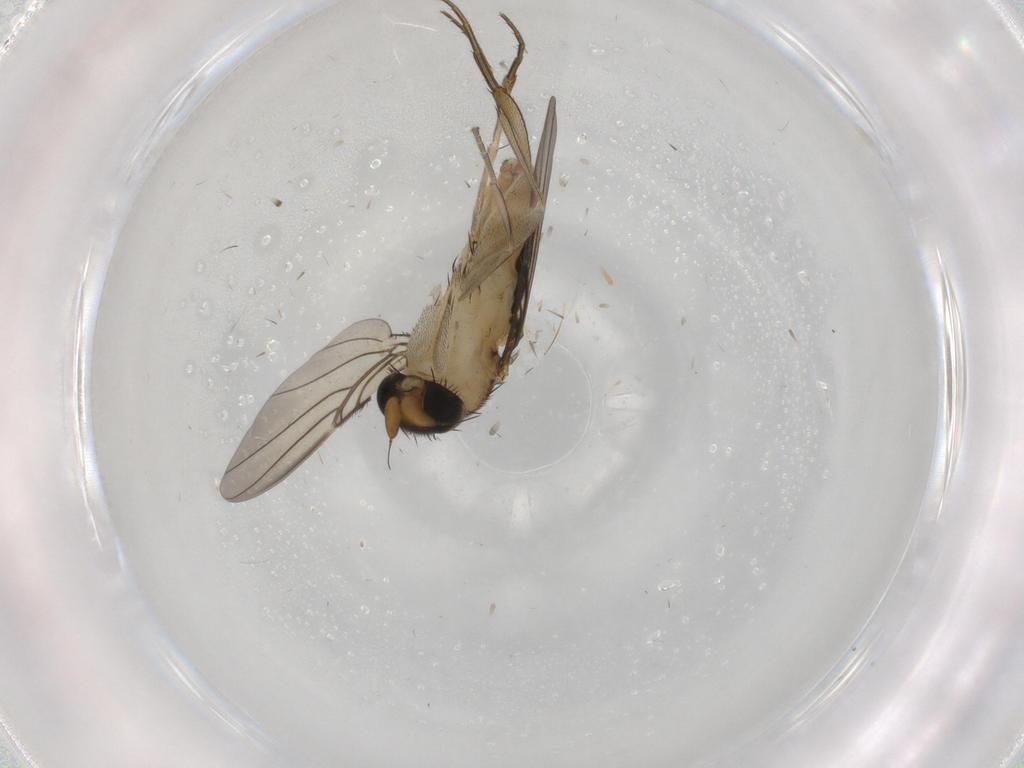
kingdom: Animalia
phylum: Arthropoda
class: Insecta
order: Diptera
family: Phoridae
